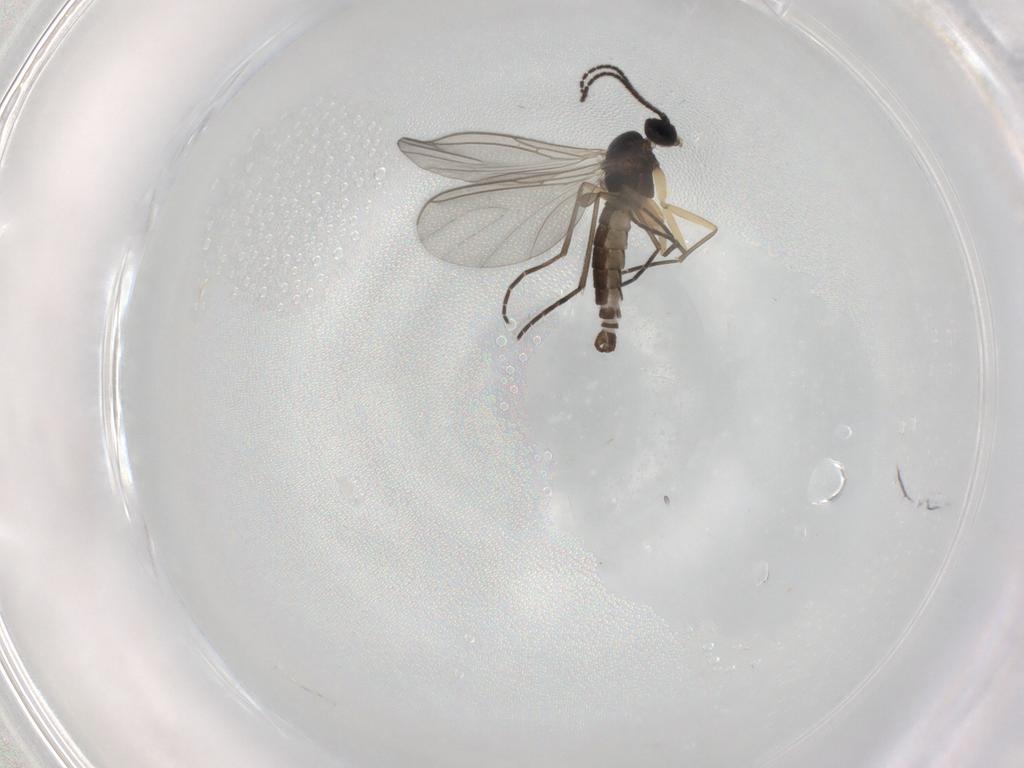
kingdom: Animalia
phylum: Arthropoda
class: Insecta
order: Diptera
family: Sciaridae
